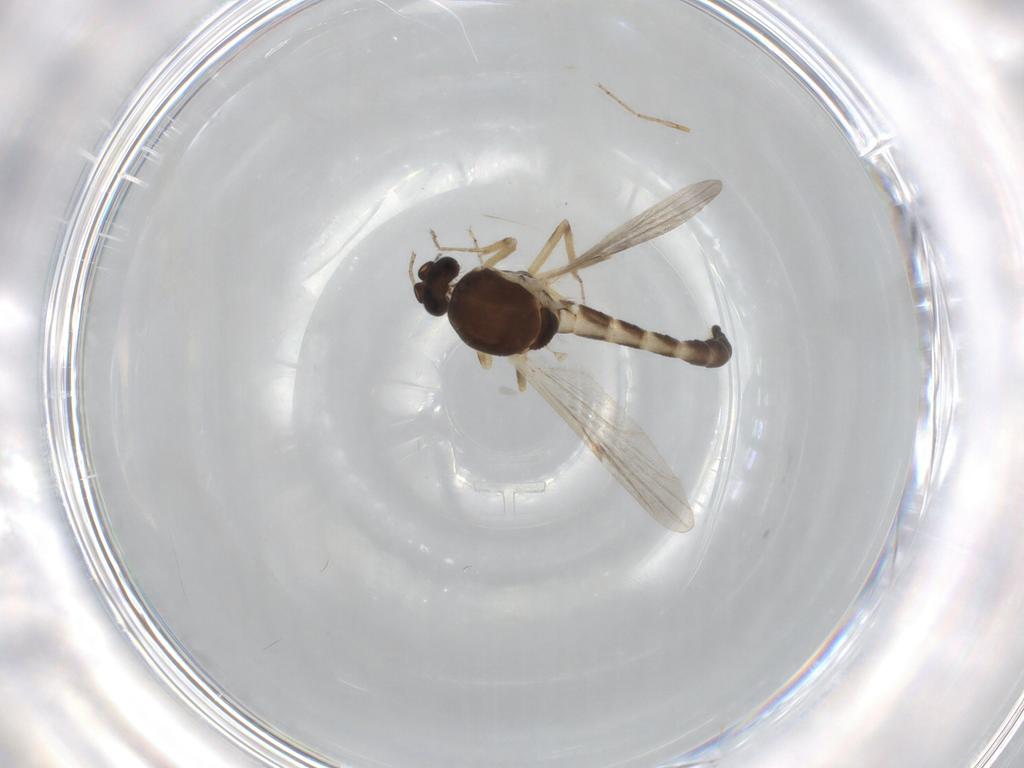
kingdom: Animalia
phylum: Arthropoda
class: Insecta
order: Diptera
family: Ceratopogonidae
